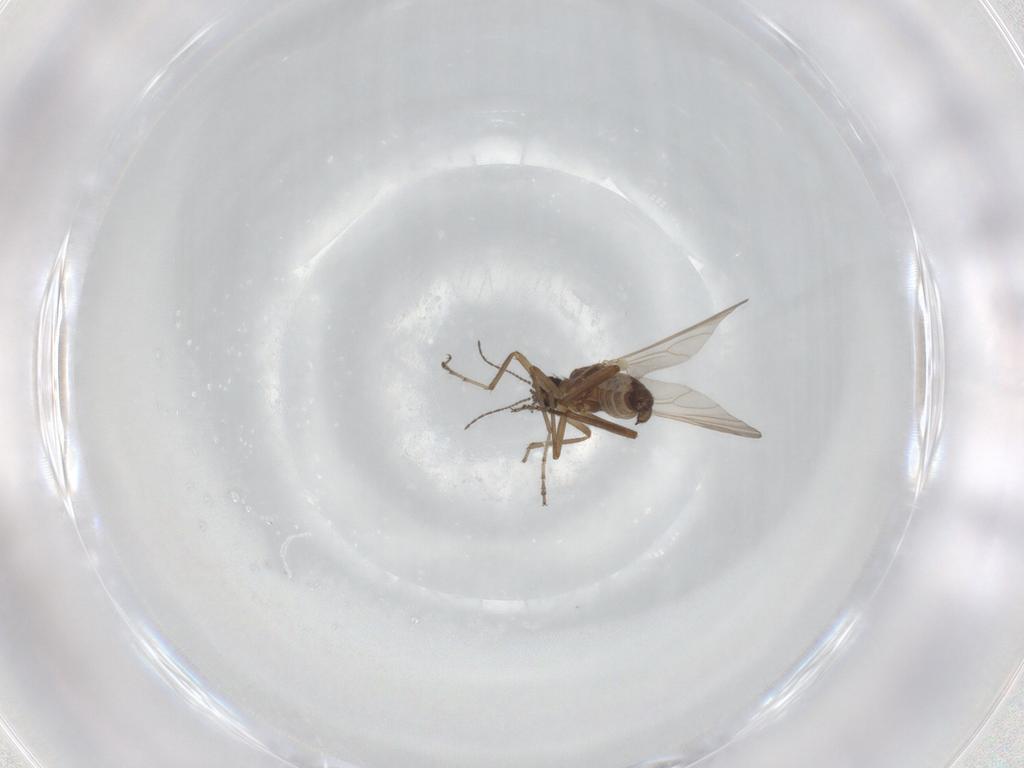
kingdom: Animalia
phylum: Arthropoda
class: Insecta
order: Diptera
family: Ceratopogonidae
